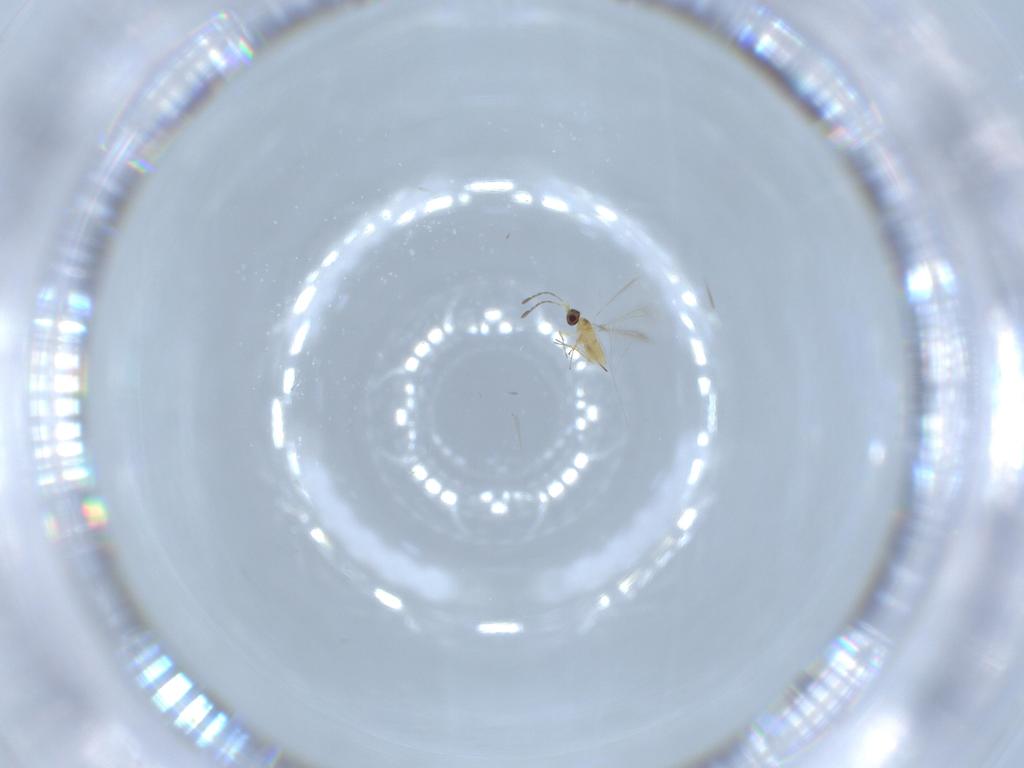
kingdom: Animalia
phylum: Arthropoda
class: Insecta
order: Hymenoptera
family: Mymaridae
